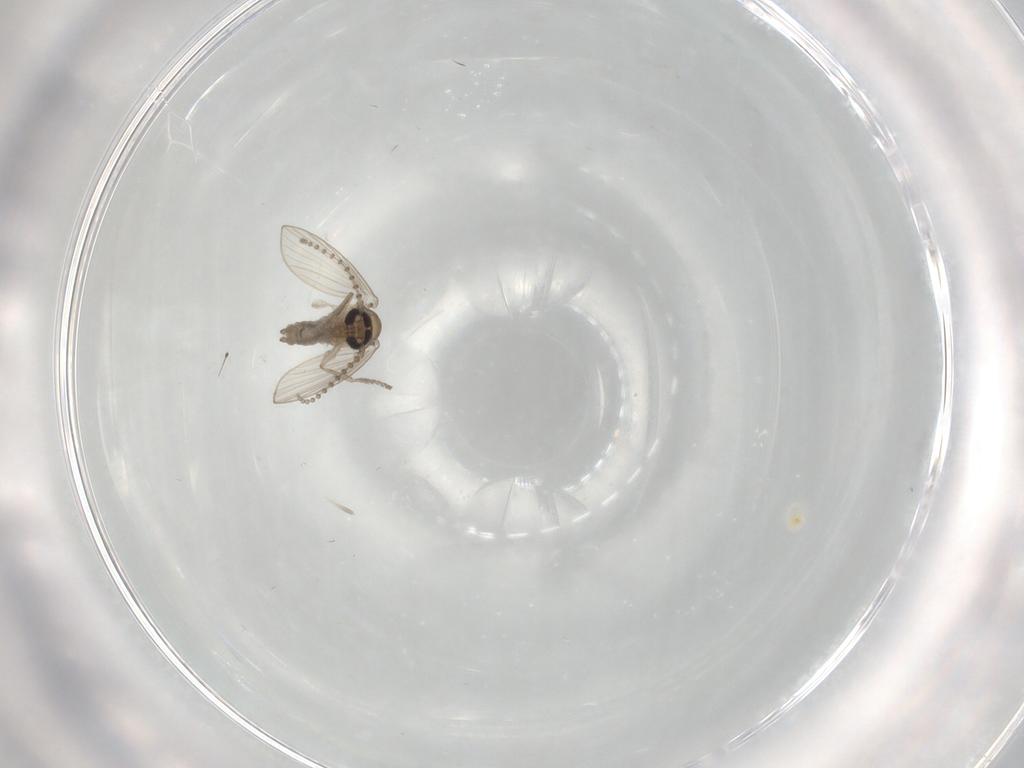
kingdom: Animalia
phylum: Arthropoda
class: Insecta
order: Diptera
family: Psychodidae
